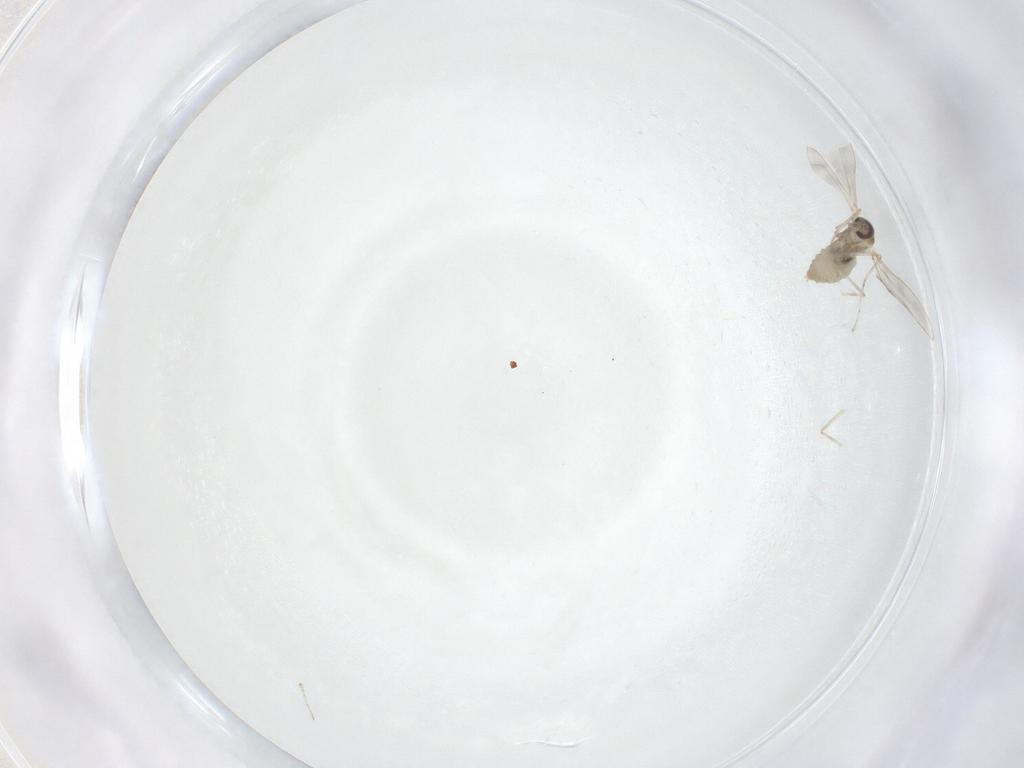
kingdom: Animalia
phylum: Arthropoda
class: Insecta
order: Diptera
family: Cecidomyiidae
